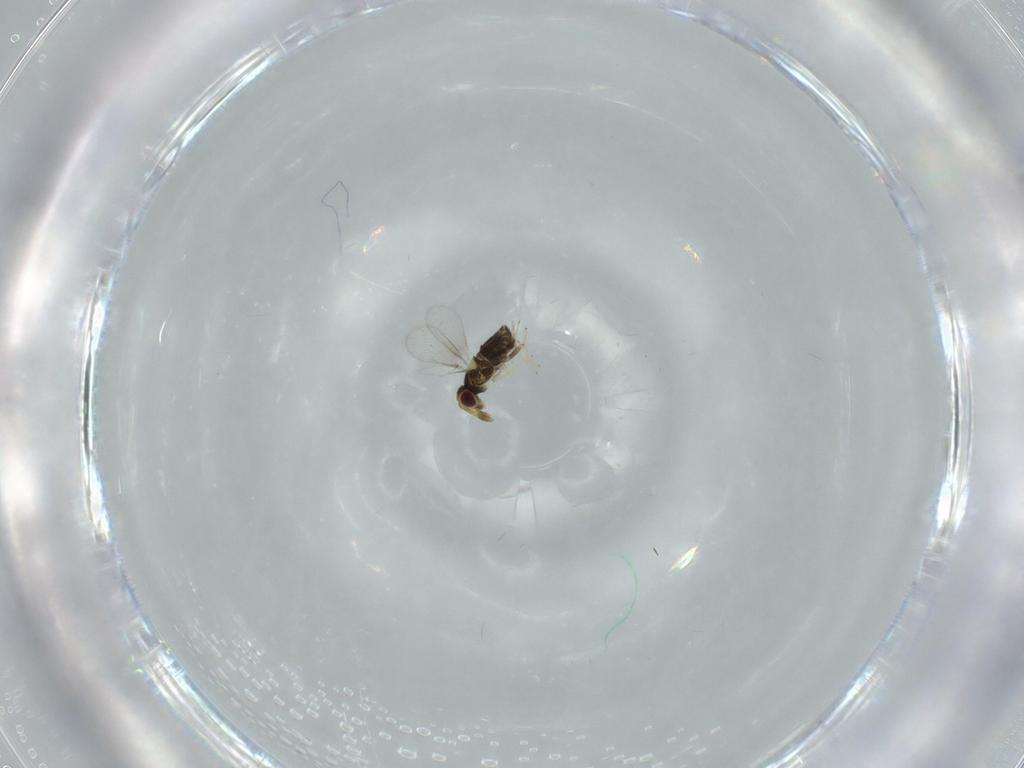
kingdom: Animalia
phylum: Arthropoda
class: Insecta
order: Hymenoptera
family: Aphelinidae
